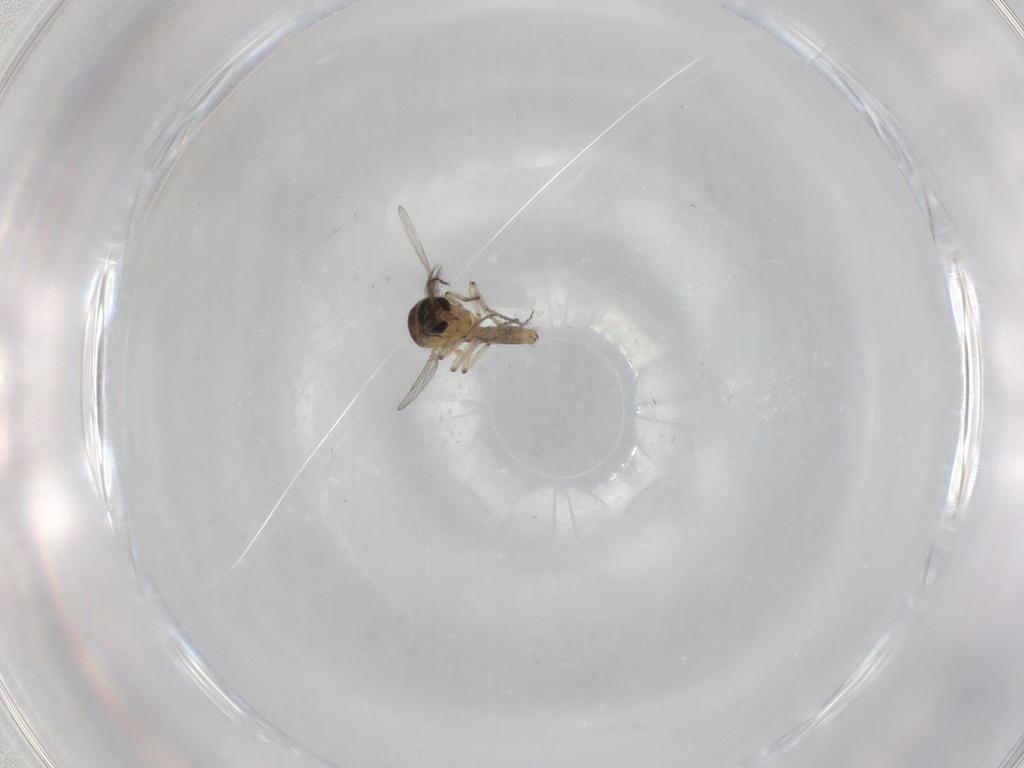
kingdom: Animalia
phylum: Arthropoda
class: Insecta
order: Diptera
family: Ceratopogonidae
